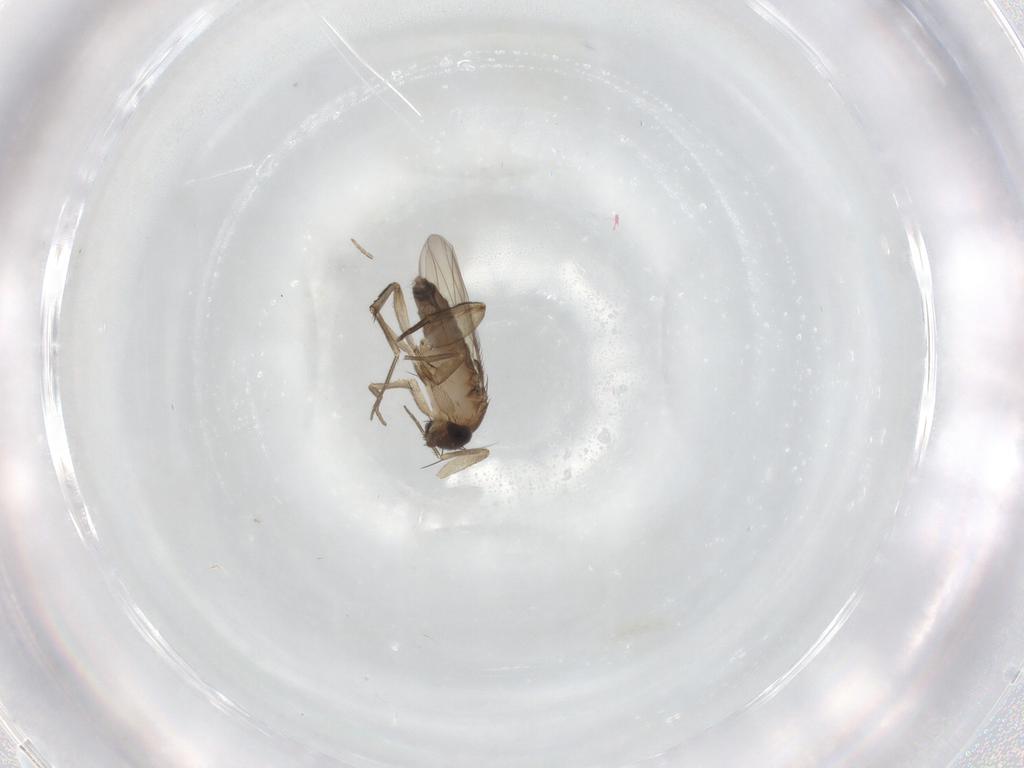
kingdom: Animalia
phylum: Arthropoda
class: Insecta
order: Diptera
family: Phoridae
